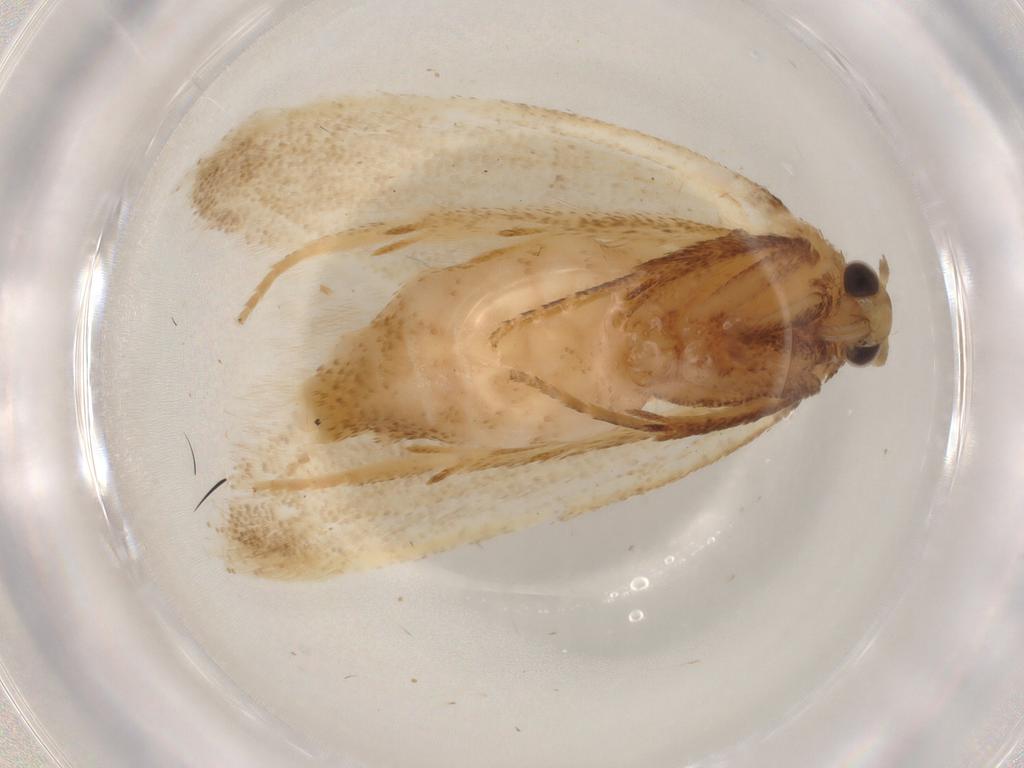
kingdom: Animalia
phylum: Arthropoda
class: Insecta
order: Lepidoptera
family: Autostichidae
